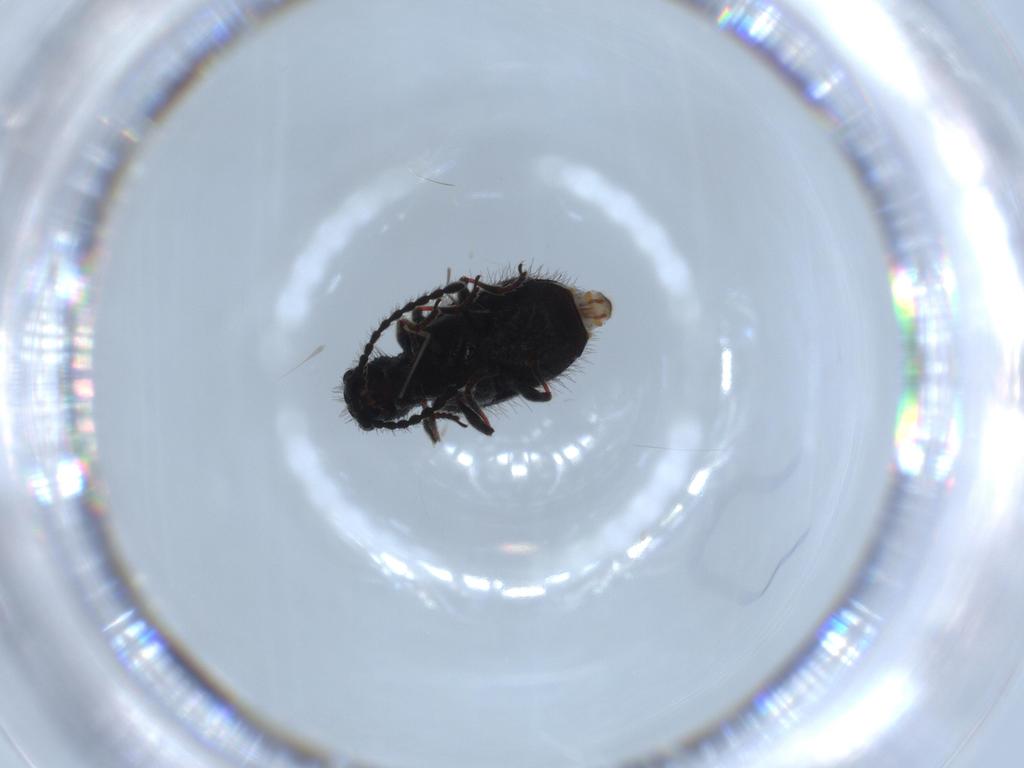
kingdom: Animalia
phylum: Arthropoda
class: Insecta
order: Coleoptera
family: Ptinidae
